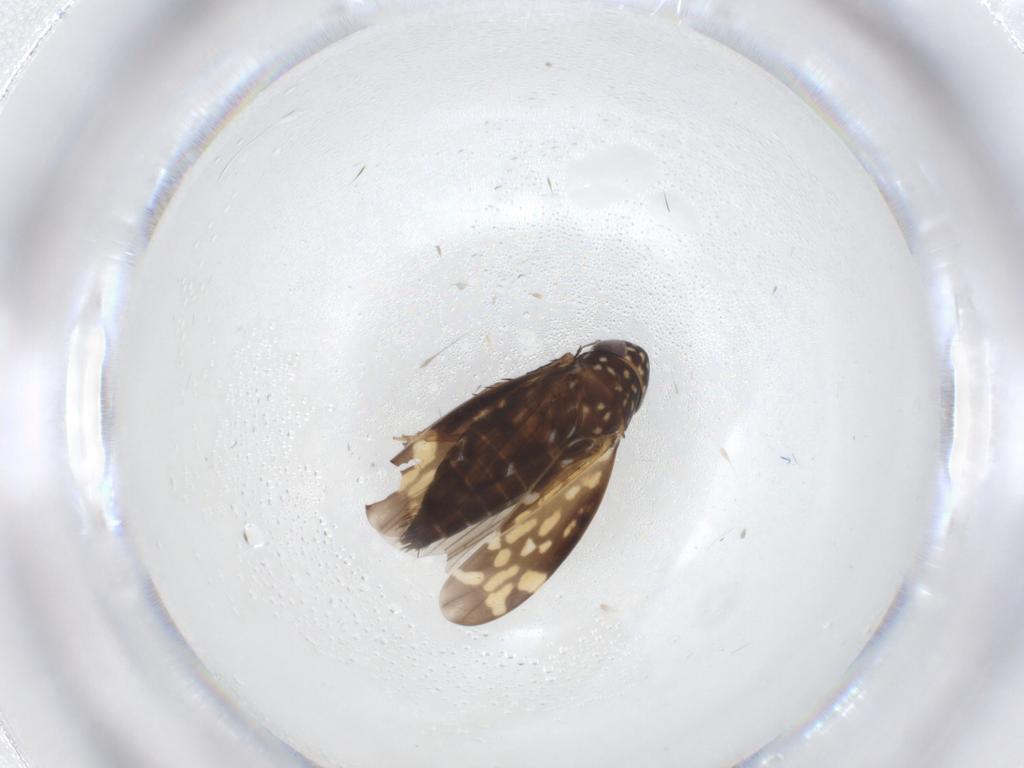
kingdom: Animalia
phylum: Arthropoda
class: Insecta
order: Hemiptera
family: Cicadellidae
